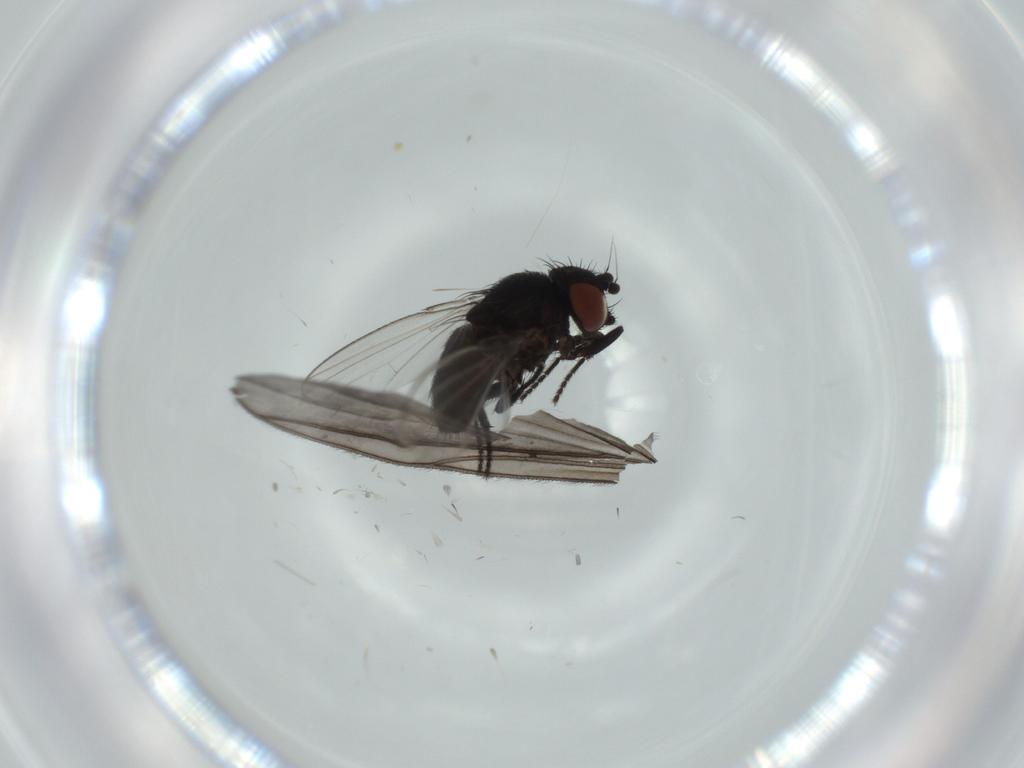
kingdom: Animalia
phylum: Arthropoda
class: Insecta
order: Diptera
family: Milichiidae
